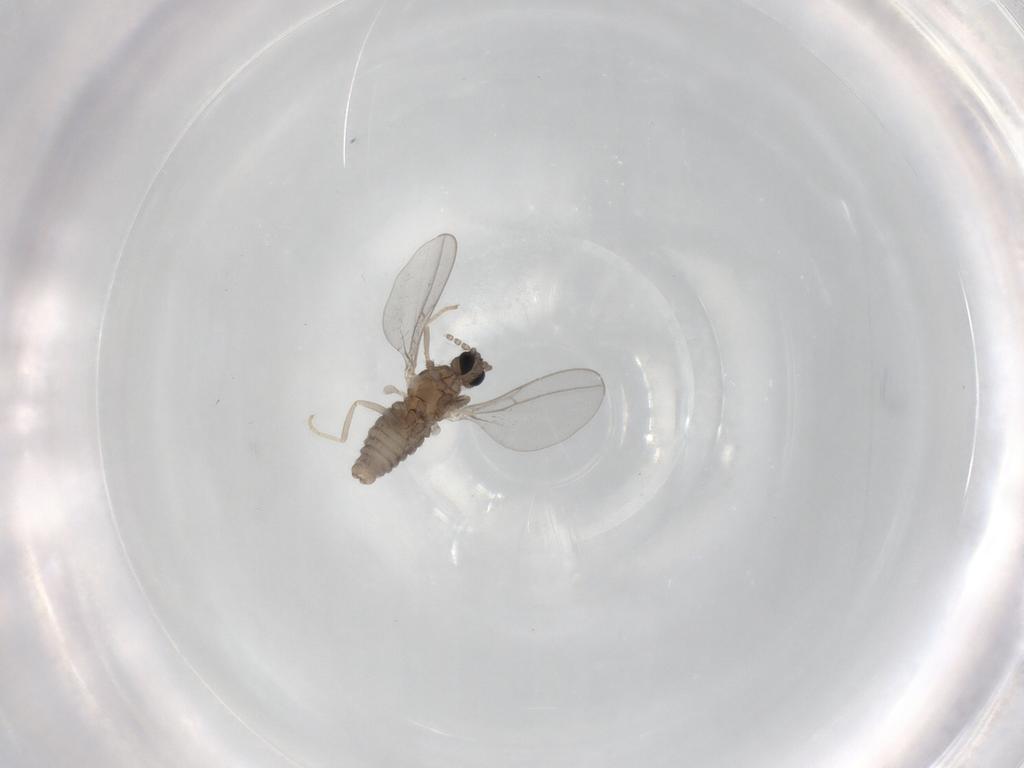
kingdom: Animalia
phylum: Arthropoda
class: Insecta
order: Diptera
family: Cecidomyiidae
